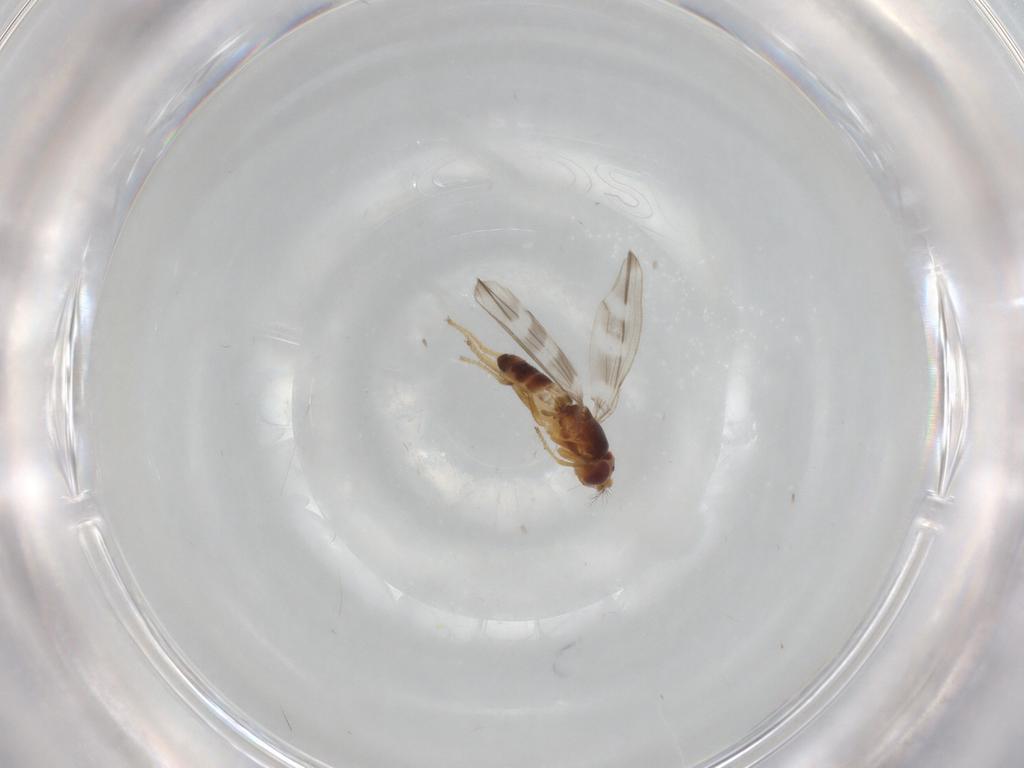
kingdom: Animalia
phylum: Arthropoda
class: Insecta
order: Diptera
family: Periscelididae
